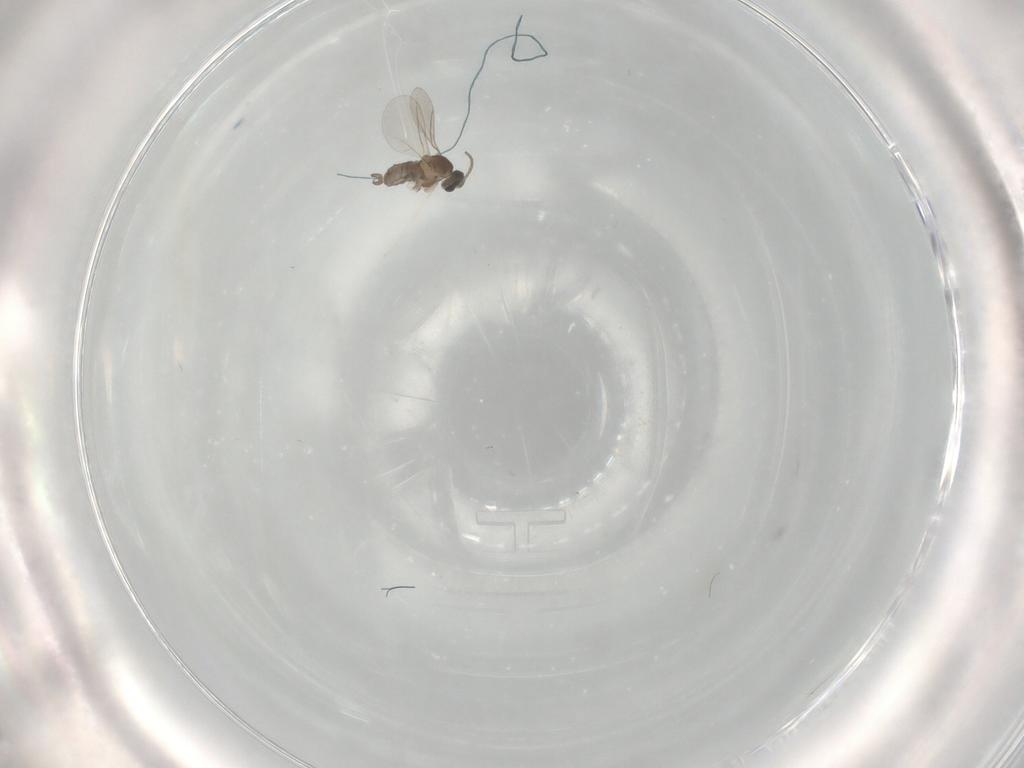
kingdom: Animalia
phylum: Arthropoda
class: Insecta
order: Diptera
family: Cecidomyiidae
